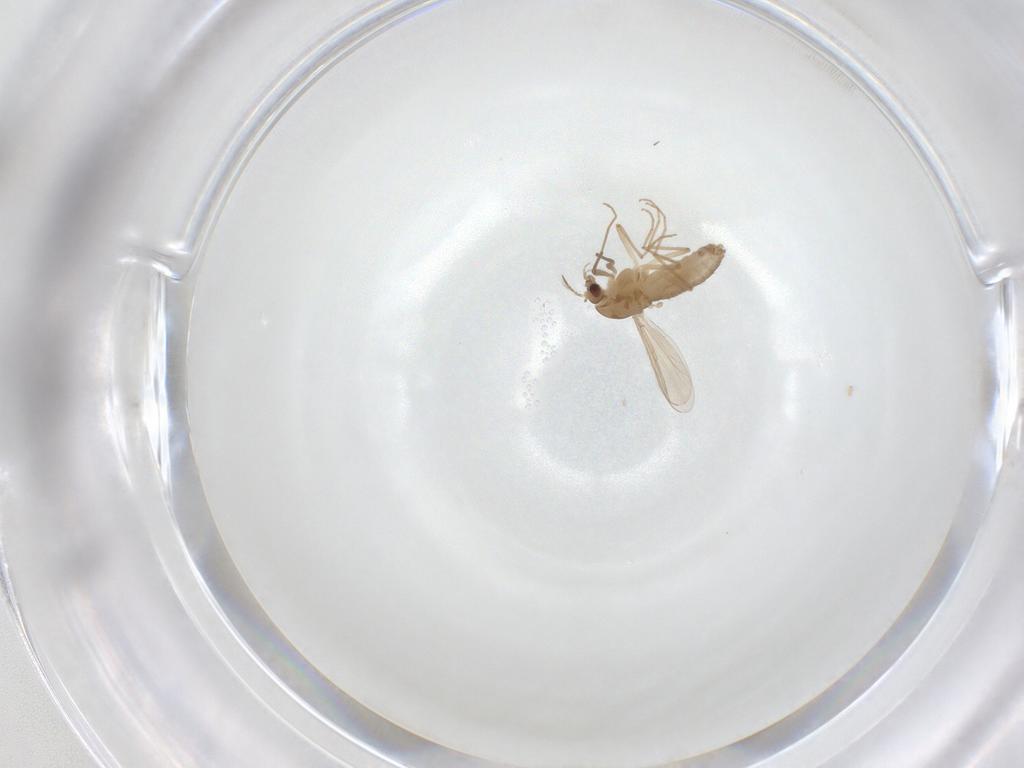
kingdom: Animalia
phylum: Arthropoda
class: Insecta
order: Diptera
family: Chironomidae
